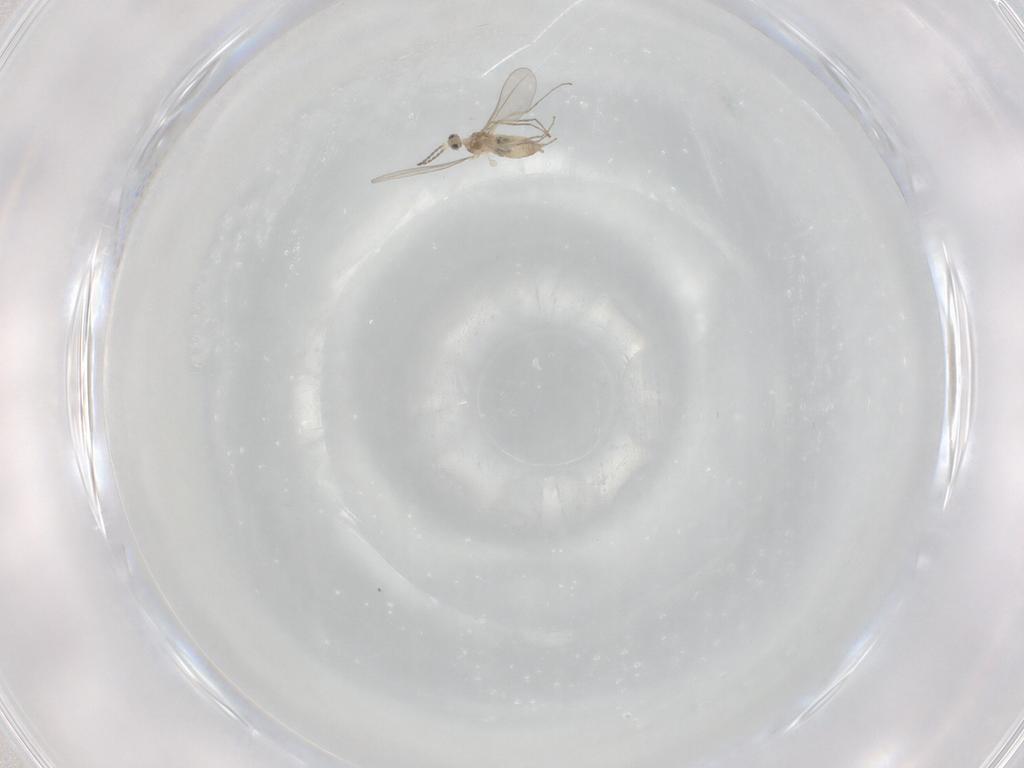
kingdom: Animalia
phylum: Arthropoda
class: Insecta
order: Diptera
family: Cecidomyiidae
